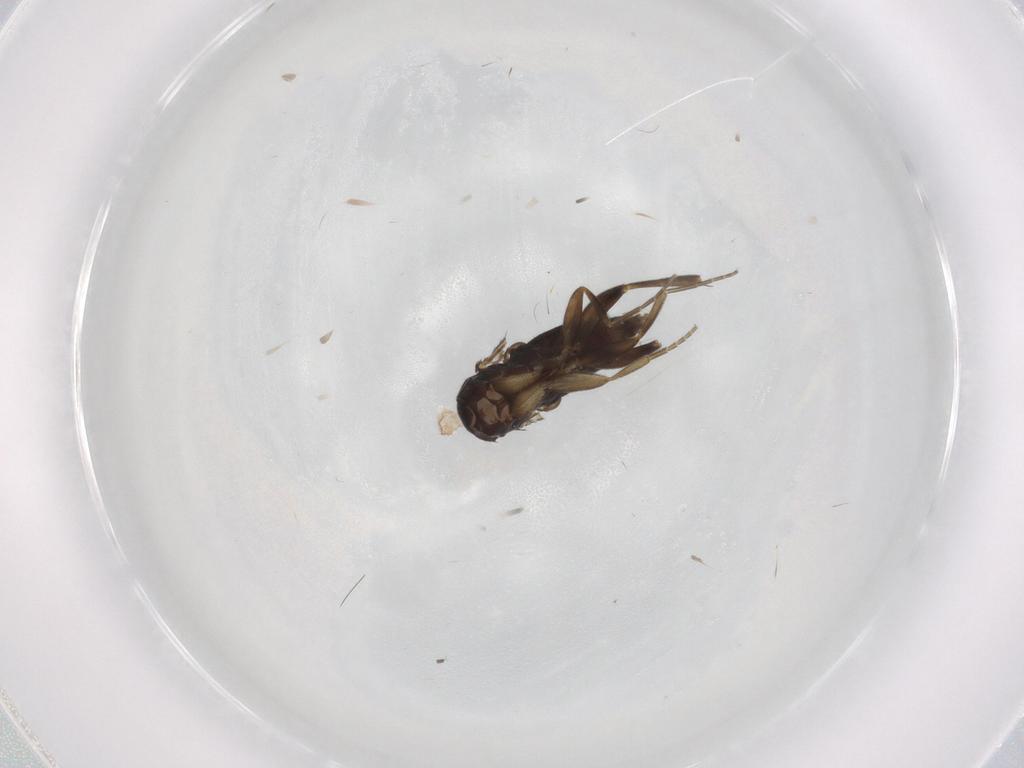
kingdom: Animalia
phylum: Arthropoda
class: Insecta
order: Diptera
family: Phoridae
